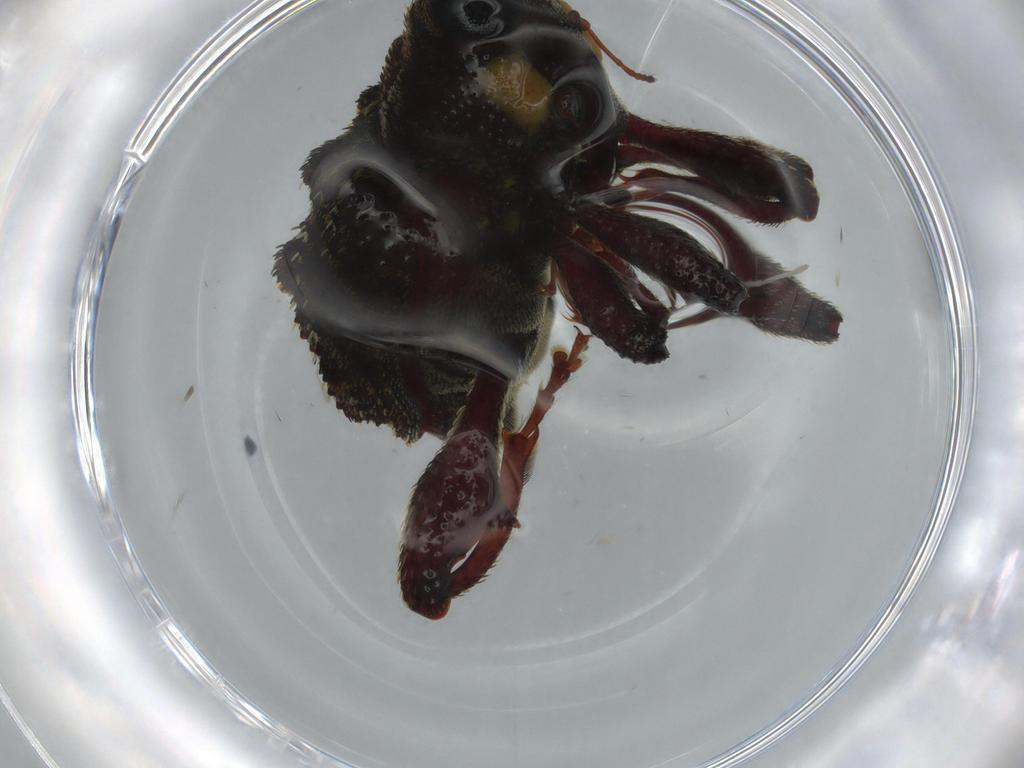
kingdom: Animalia
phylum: Arthropoda
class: Insecta
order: Coleoptera
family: Curculionidae
